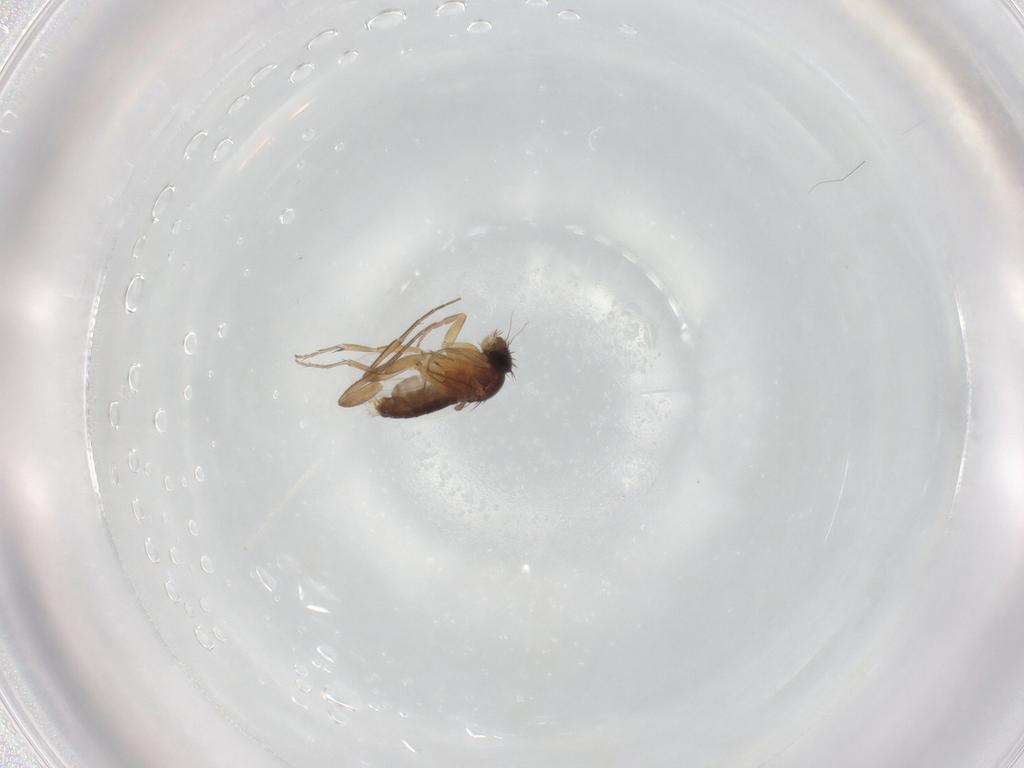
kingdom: Animalia
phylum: Arthropoda
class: Insecta
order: Diptera
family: Phoridae
